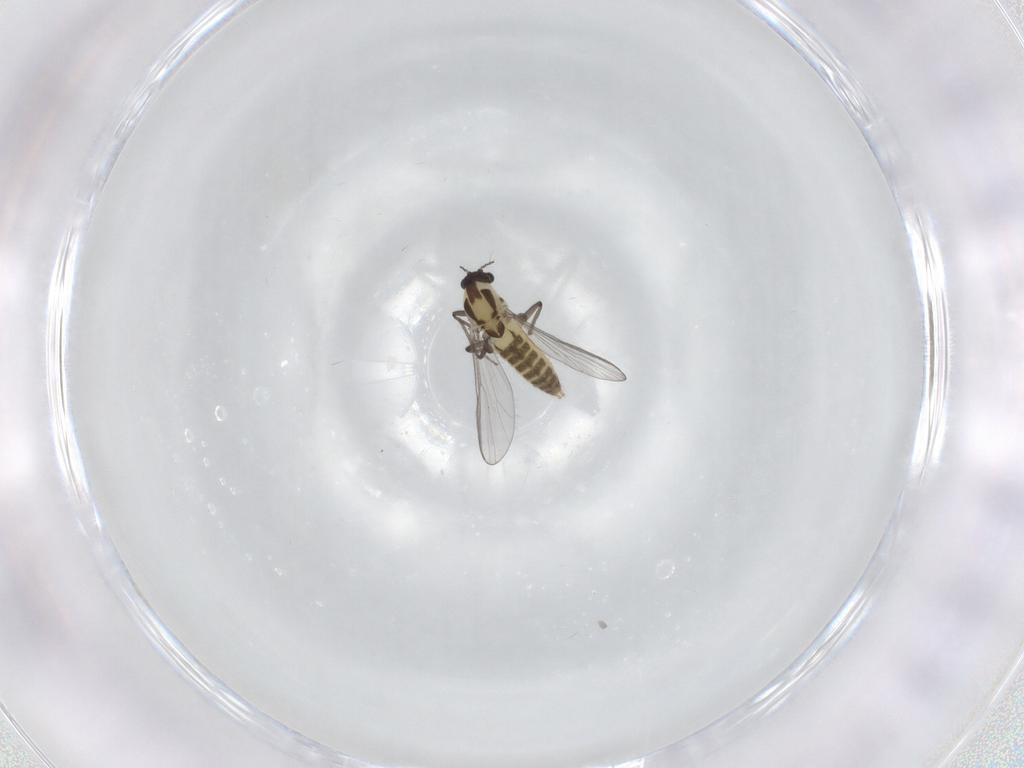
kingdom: Animalia
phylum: Arthropoda
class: Insecta
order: Diptera
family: Chironomidae
